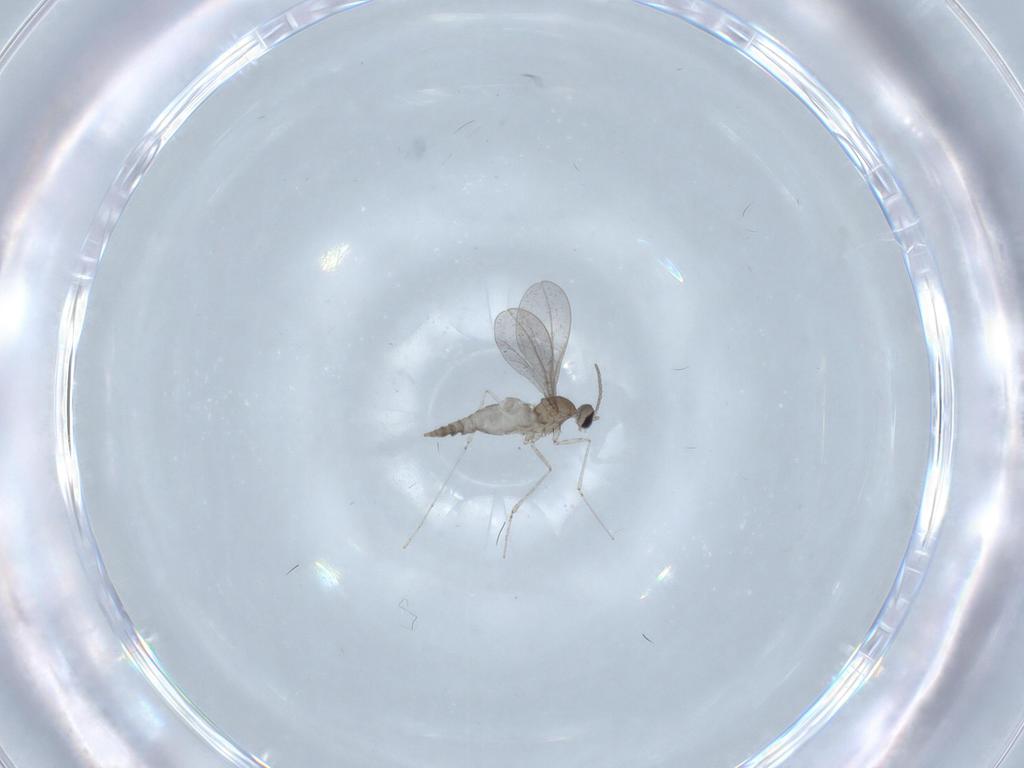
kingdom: Animalia
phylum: Arthropoda
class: Insecta
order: Diptera
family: Cecidomyiidae
